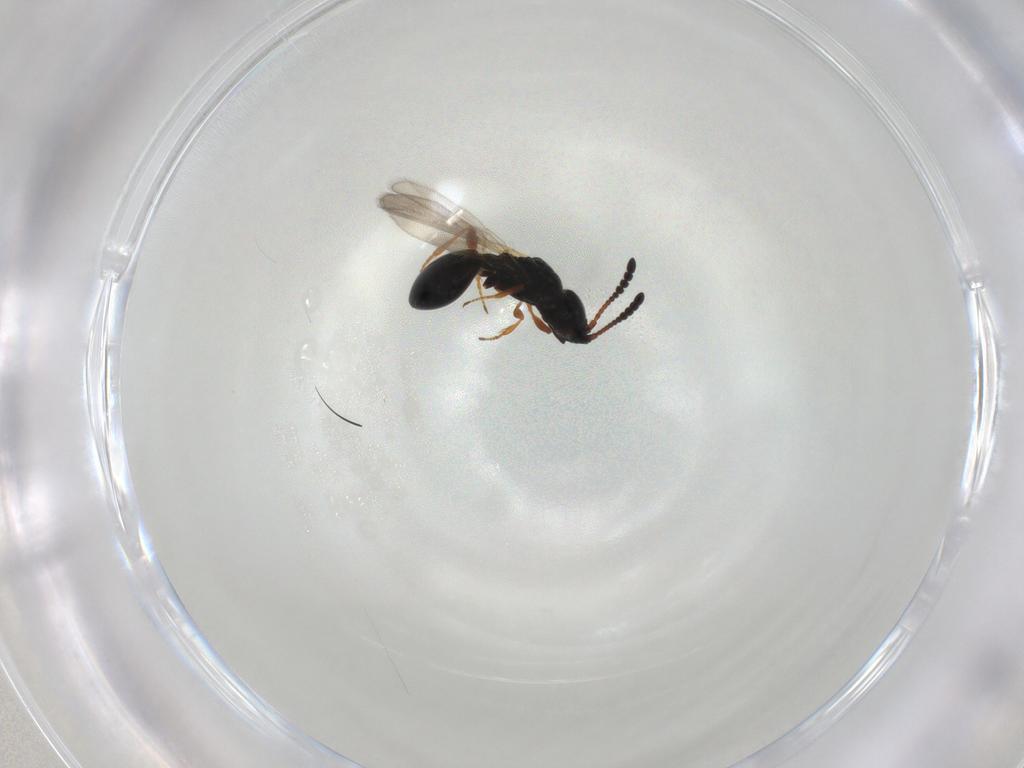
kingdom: Animalia
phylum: Arthropoda
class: Insecta
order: Hymenoptera
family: Diapriidae
